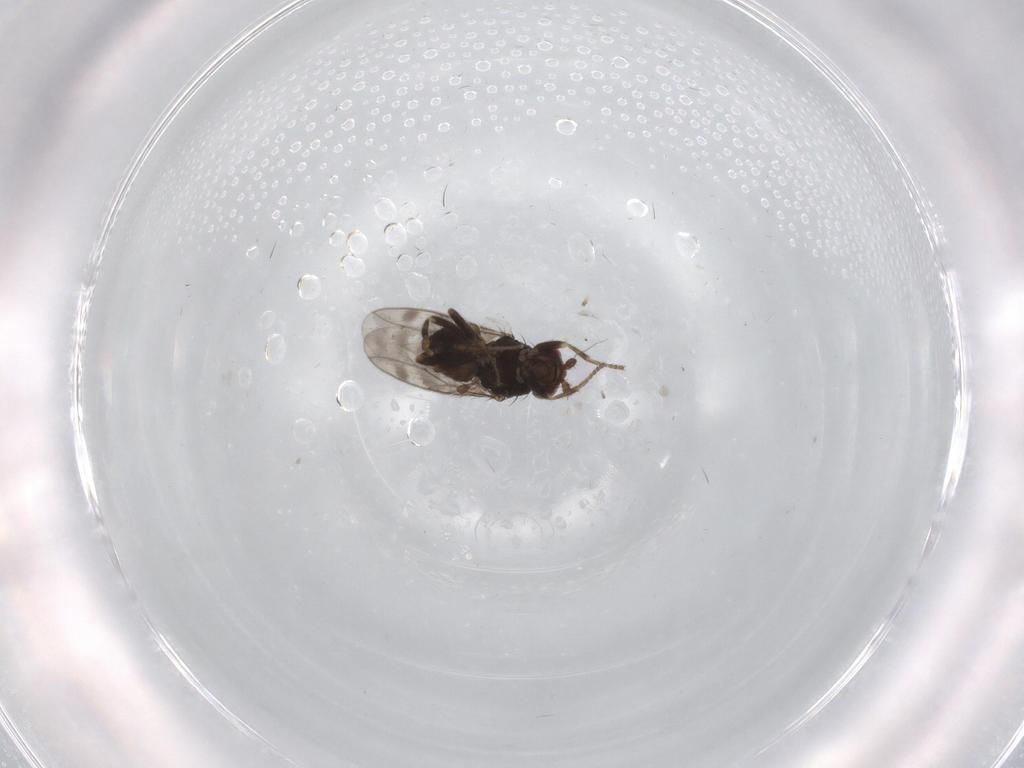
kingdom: Animalia
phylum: Arthropoda
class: Insecta
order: Diptera
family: Sphaeroceridae
